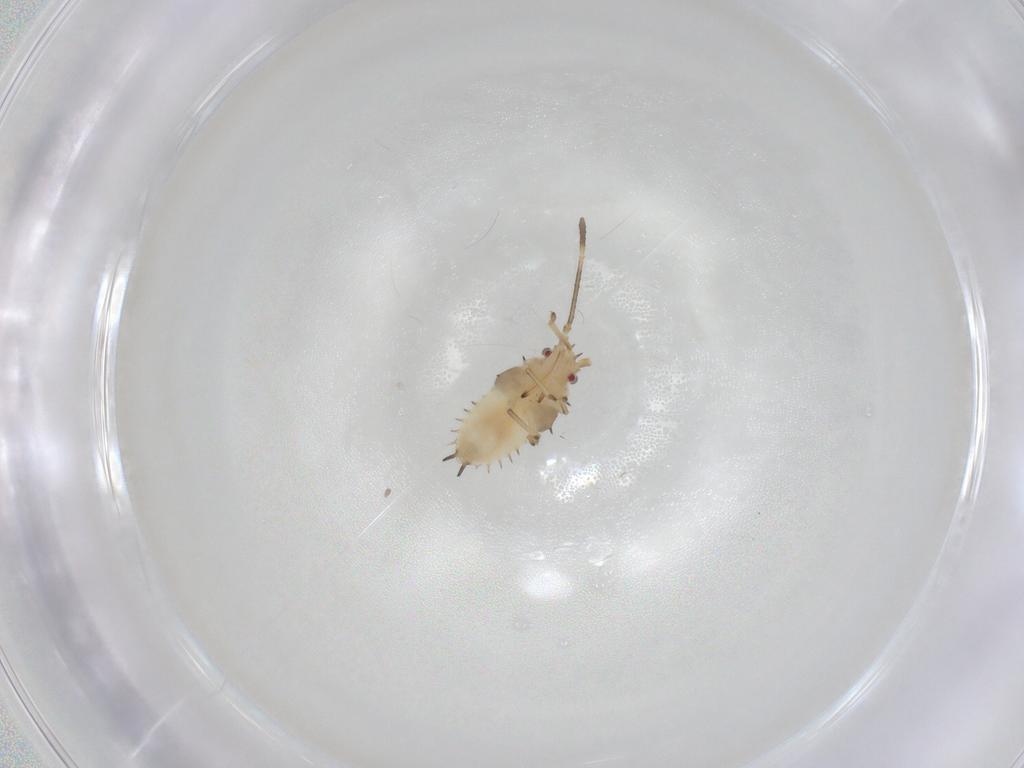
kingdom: Animalia
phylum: Arthropoda
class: Insecta
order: Hemiptera
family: Tingidae
